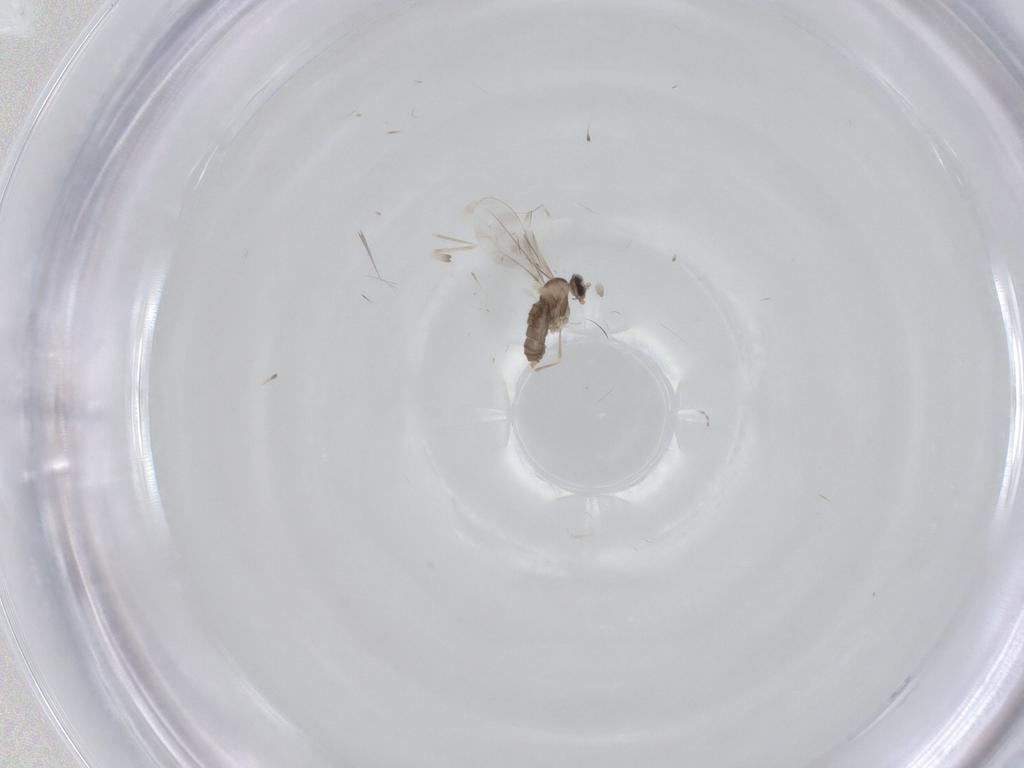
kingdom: Animalia
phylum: Arthropoda
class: Insecta
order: Diptera
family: Cecidomyiidae
